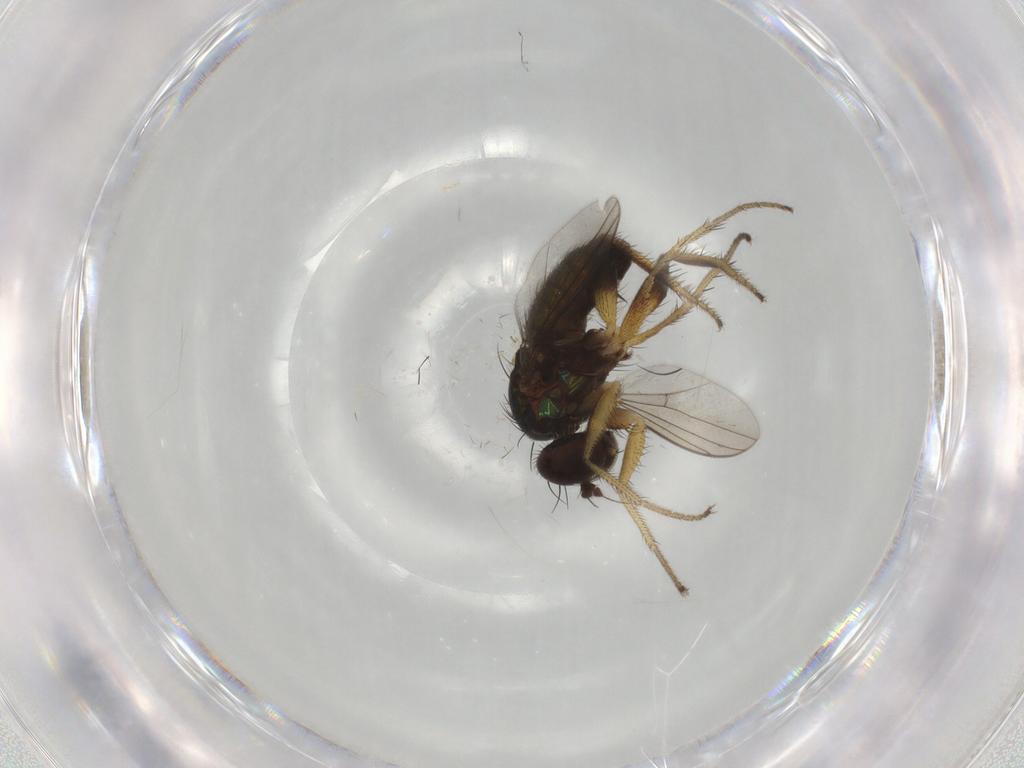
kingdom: Animalia
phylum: Arthropoda
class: Insecta
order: Diptera
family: Dolichopodidae
